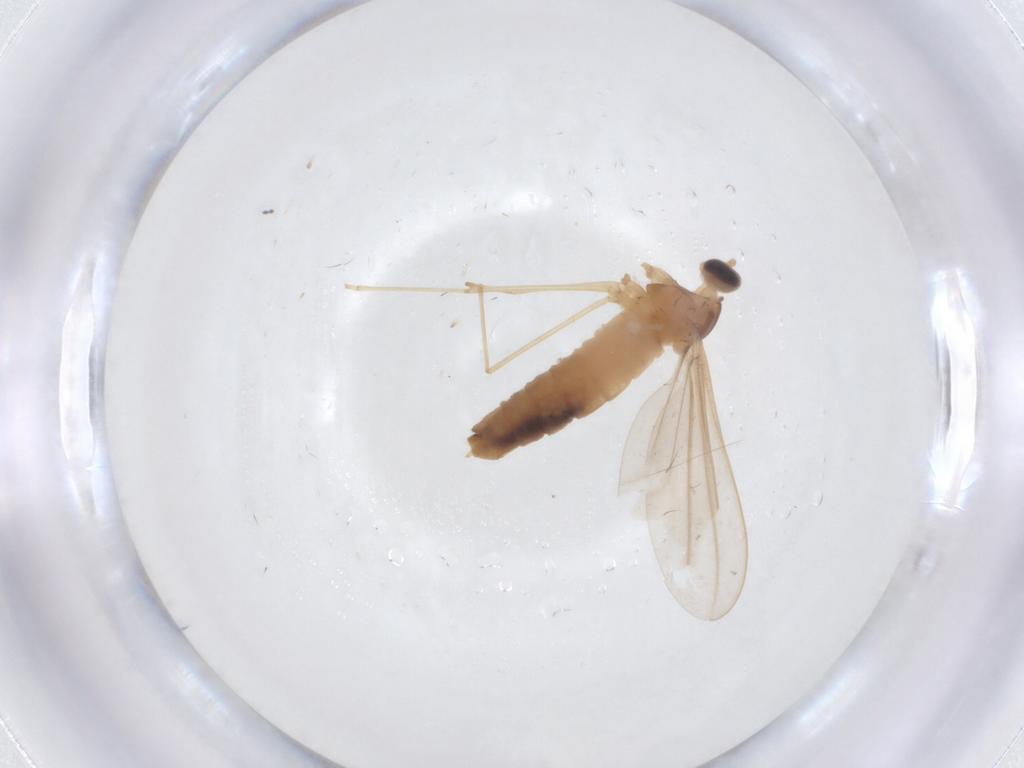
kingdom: Animalia
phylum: Arthropoda
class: Insecta
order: Diptera
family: Cecidomyiidae
